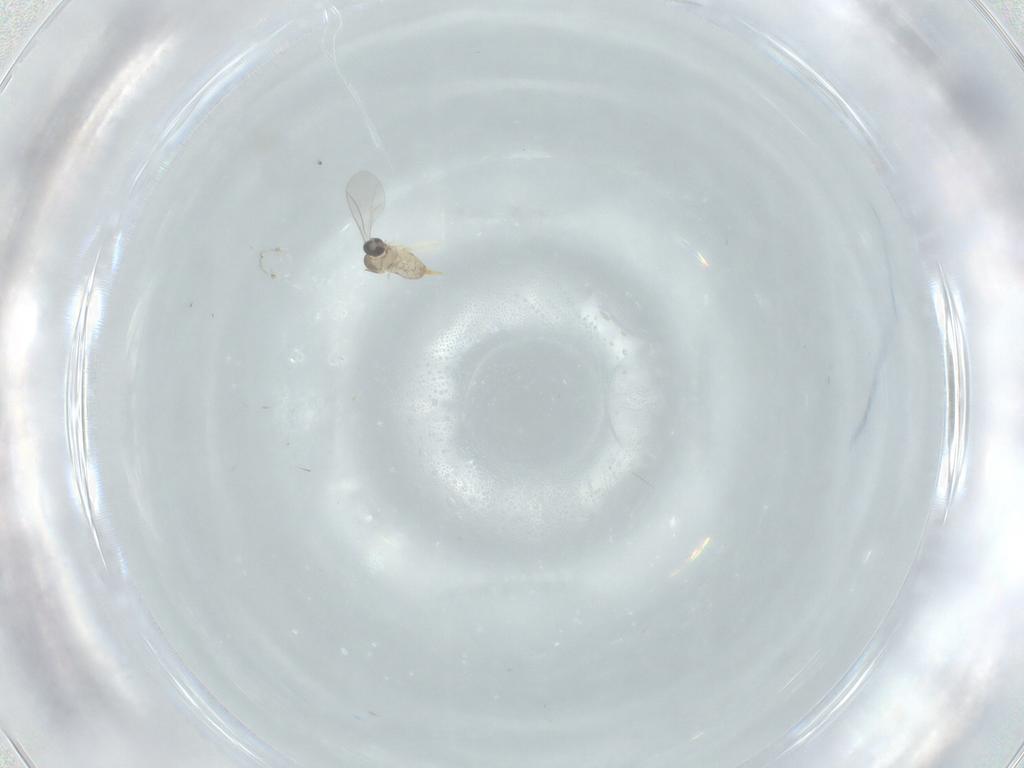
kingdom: Animalia
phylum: Arthropoda
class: Insecta
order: Diptera
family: Cecidomyiidae
